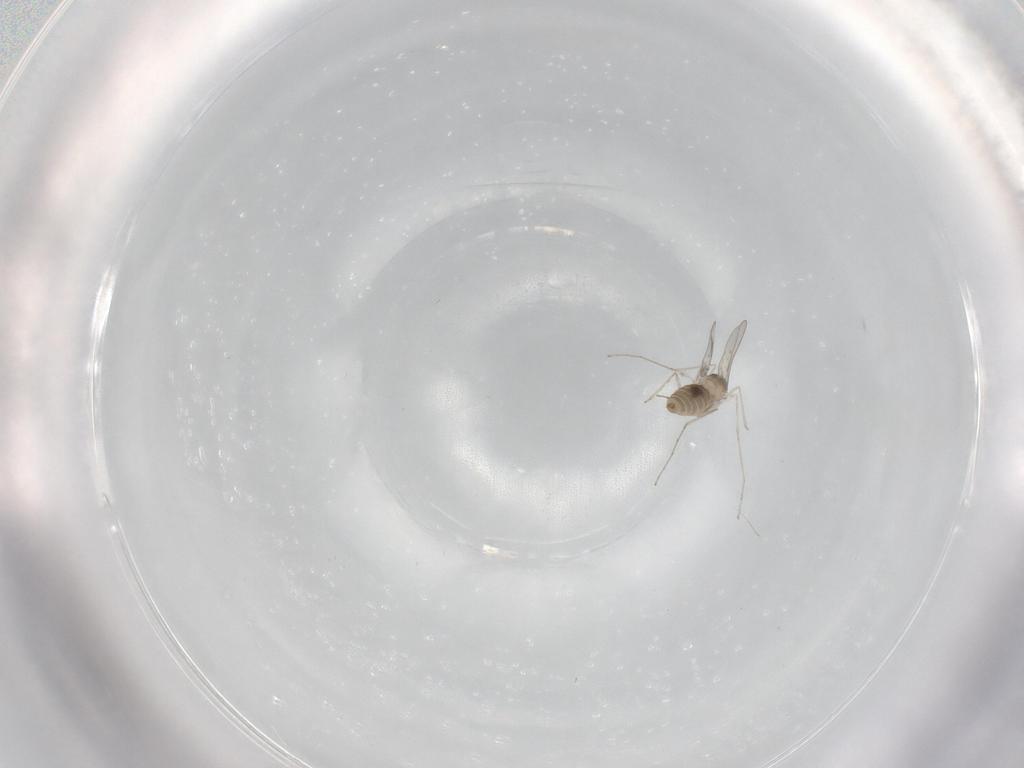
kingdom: Animalia
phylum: Arthropoda
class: Insecta
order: Diptera
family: Cecidomyiidae
